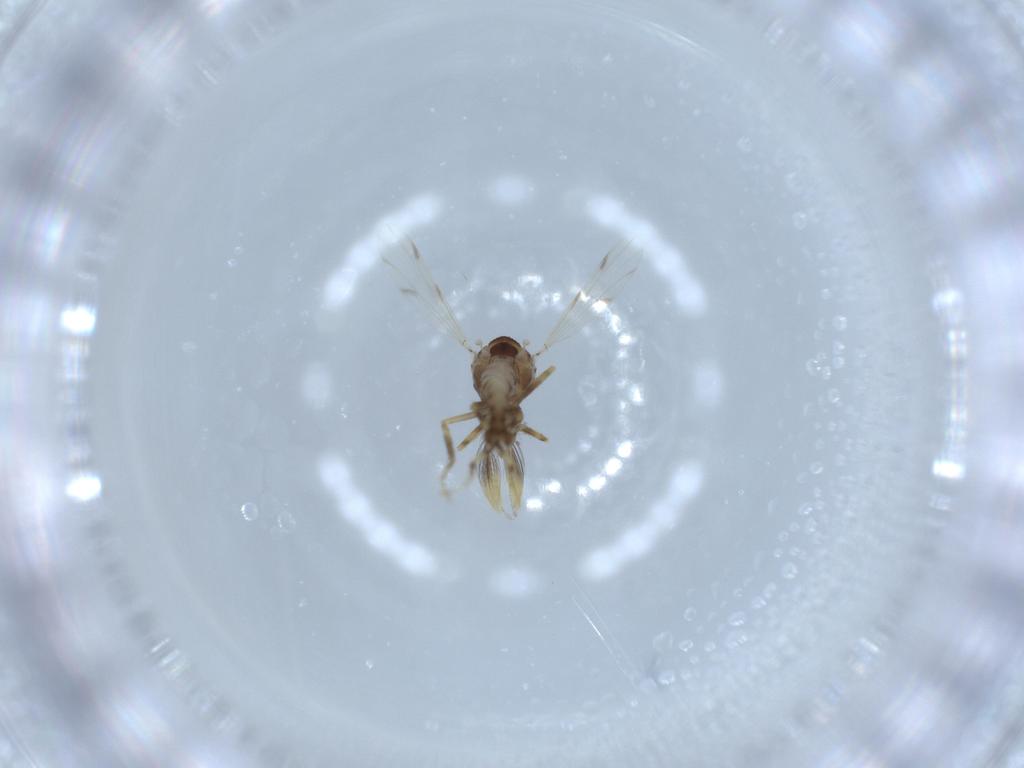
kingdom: Animalia
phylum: Arthropoda
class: Insecta
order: Diptera
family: Ceratopogonidae
